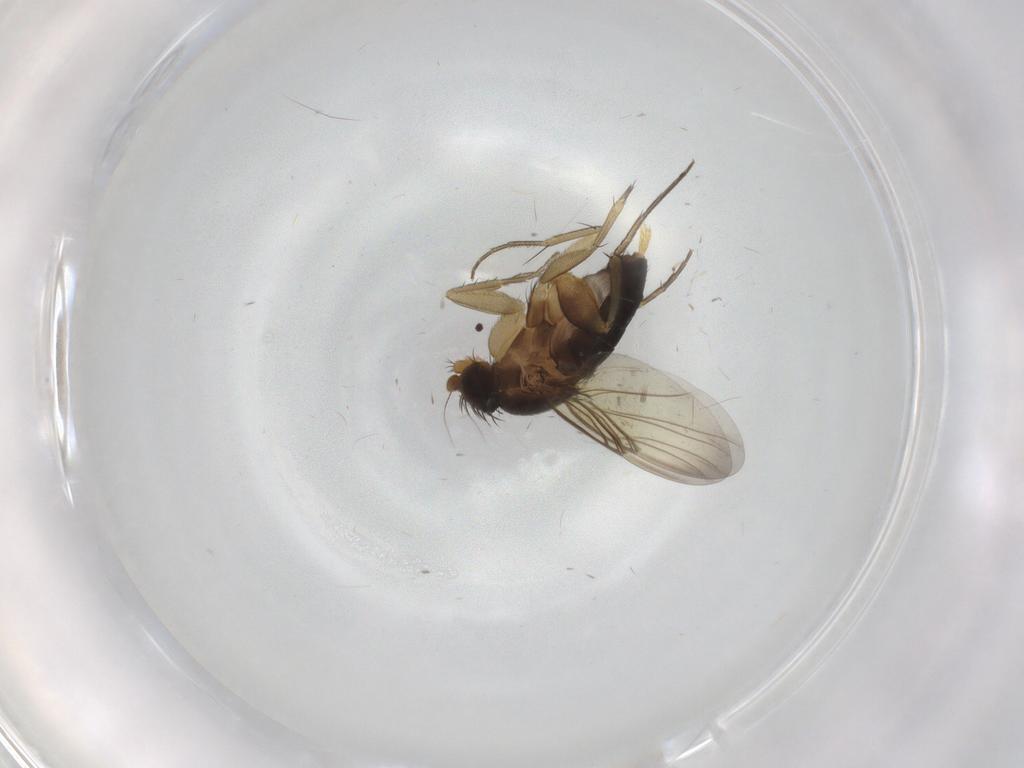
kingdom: Animalia
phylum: Arthropoda
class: Insecta
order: Diptera
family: Phoridae
